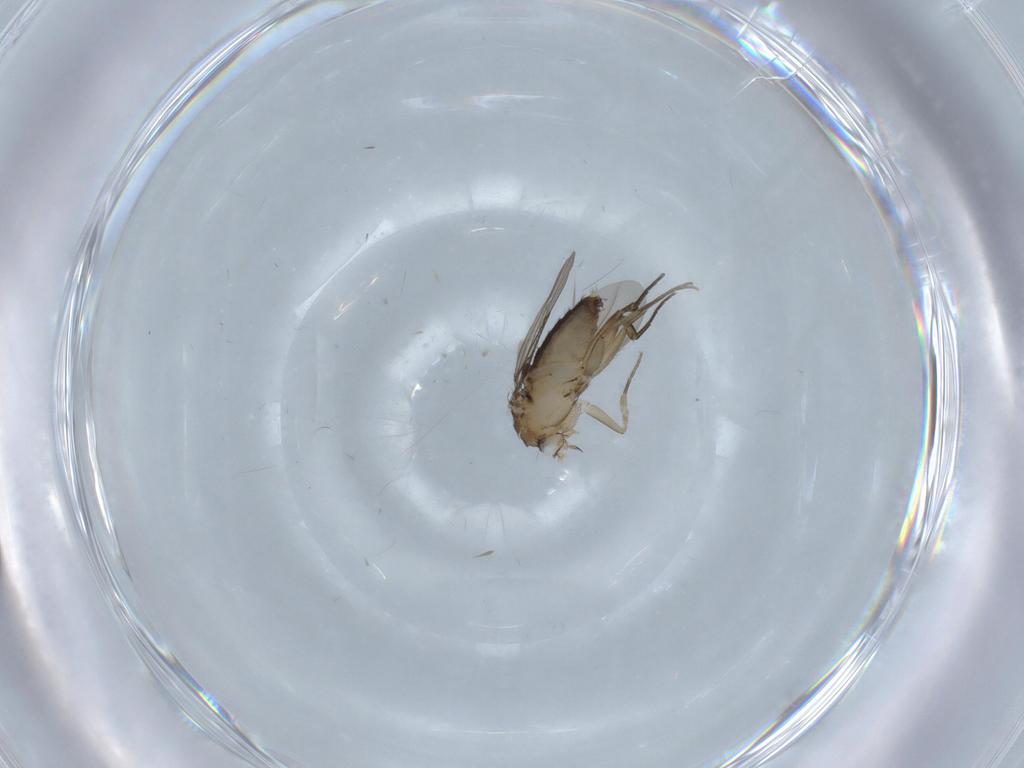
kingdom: Animalia
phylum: Arthropoda
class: Insecta
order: Diptera
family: Phoridae
